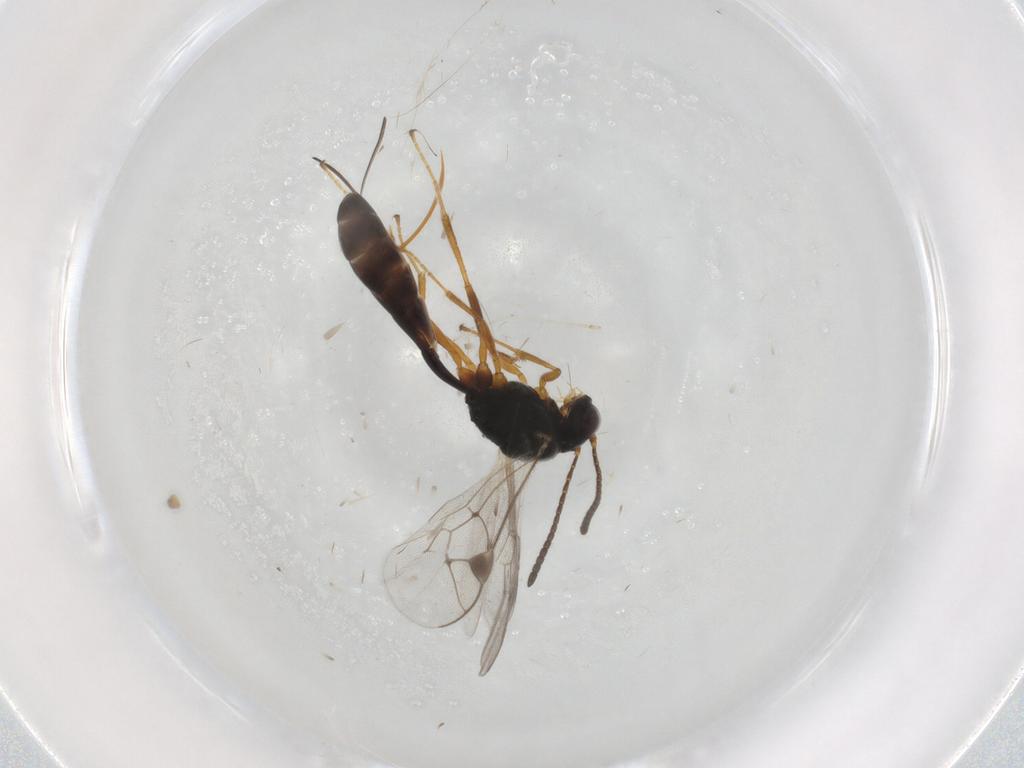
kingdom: Animalia
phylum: Arthropoda
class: Insecta
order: Hymenoptera
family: Ichneumonidae
